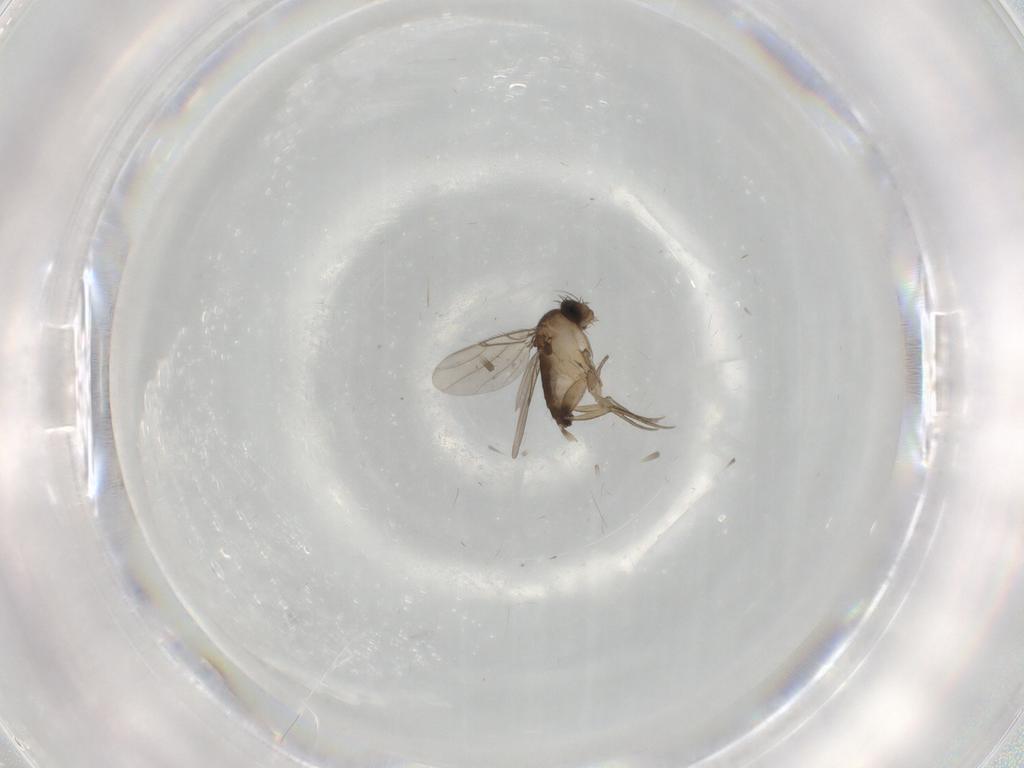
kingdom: Animalia
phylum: Arthropoda
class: Insecta
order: Diptera
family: Phoridae
